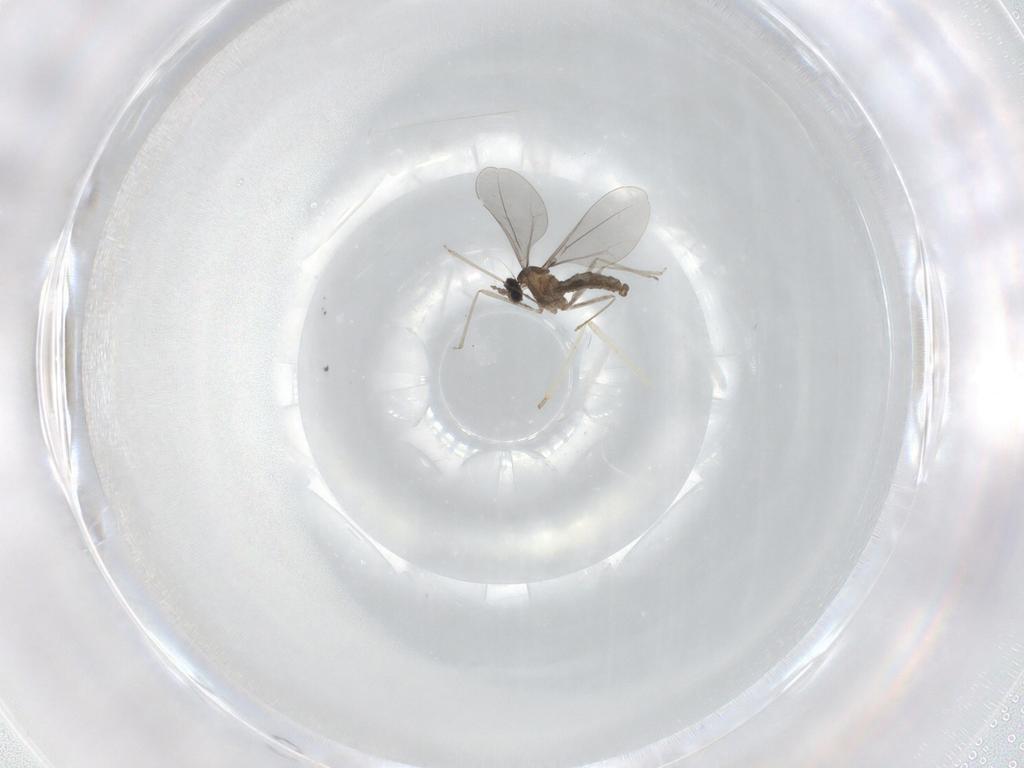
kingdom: Animalia
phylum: Arthropoda
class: Insecta
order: Diptera
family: Cecidomyiidae
